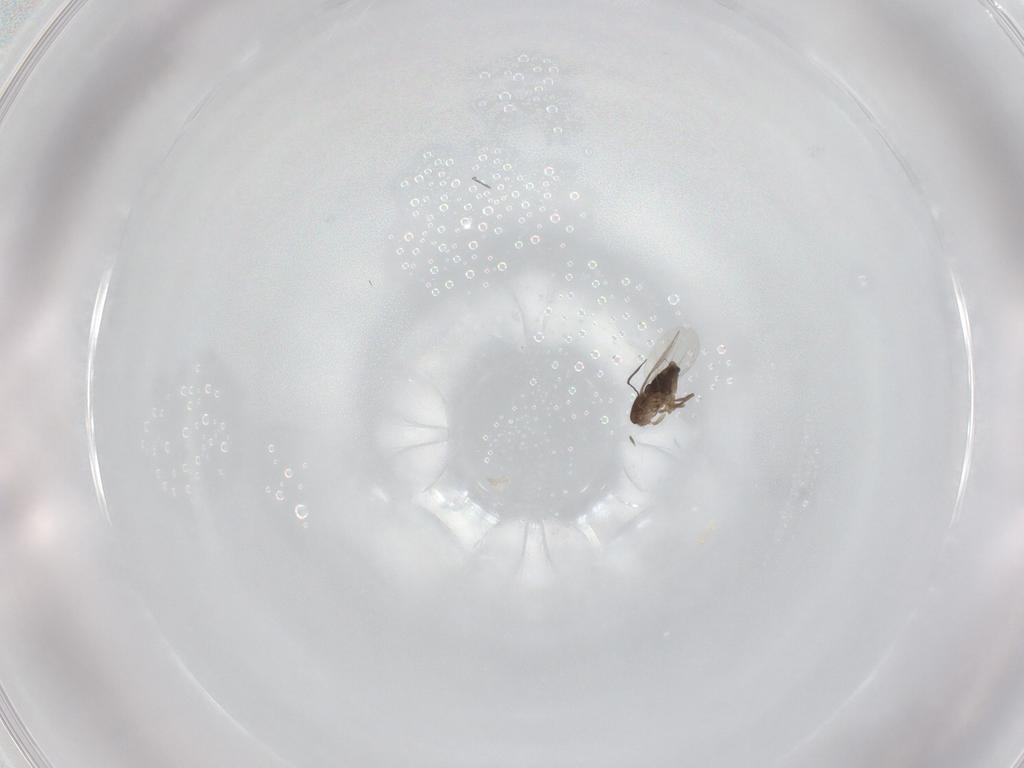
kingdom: Animalia
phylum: Arthropoda
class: Insecta
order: Diptera
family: Phoridae
